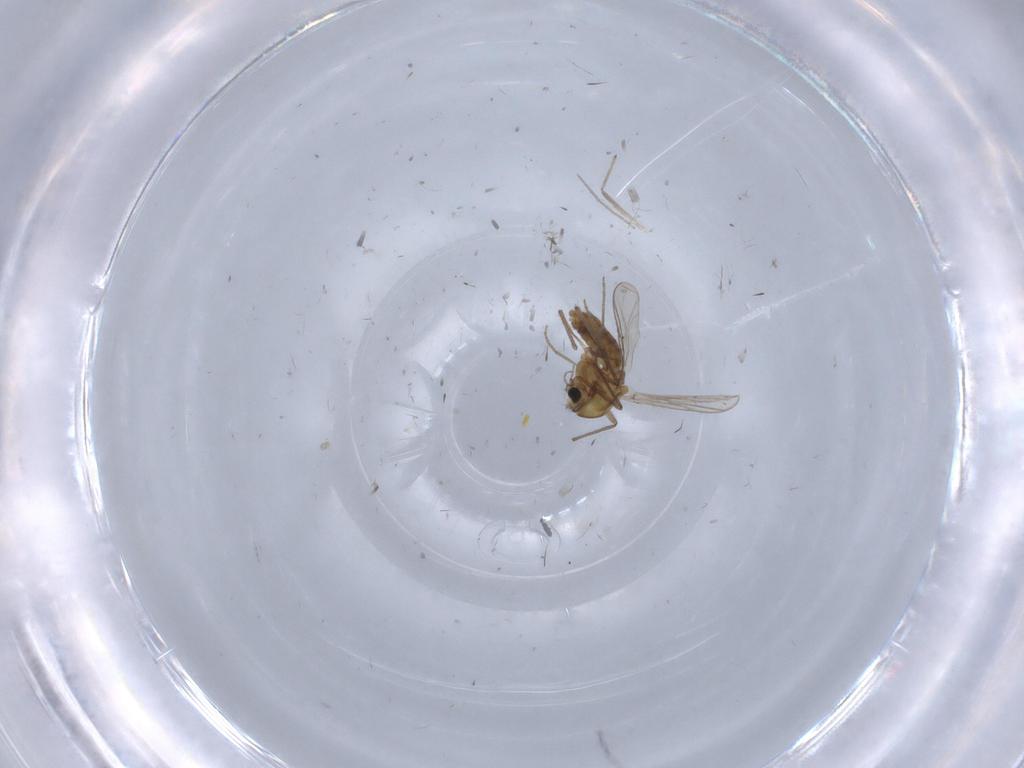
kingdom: Animalia
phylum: Arthropoda
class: Insecta
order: Diptera
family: Chironomidae
